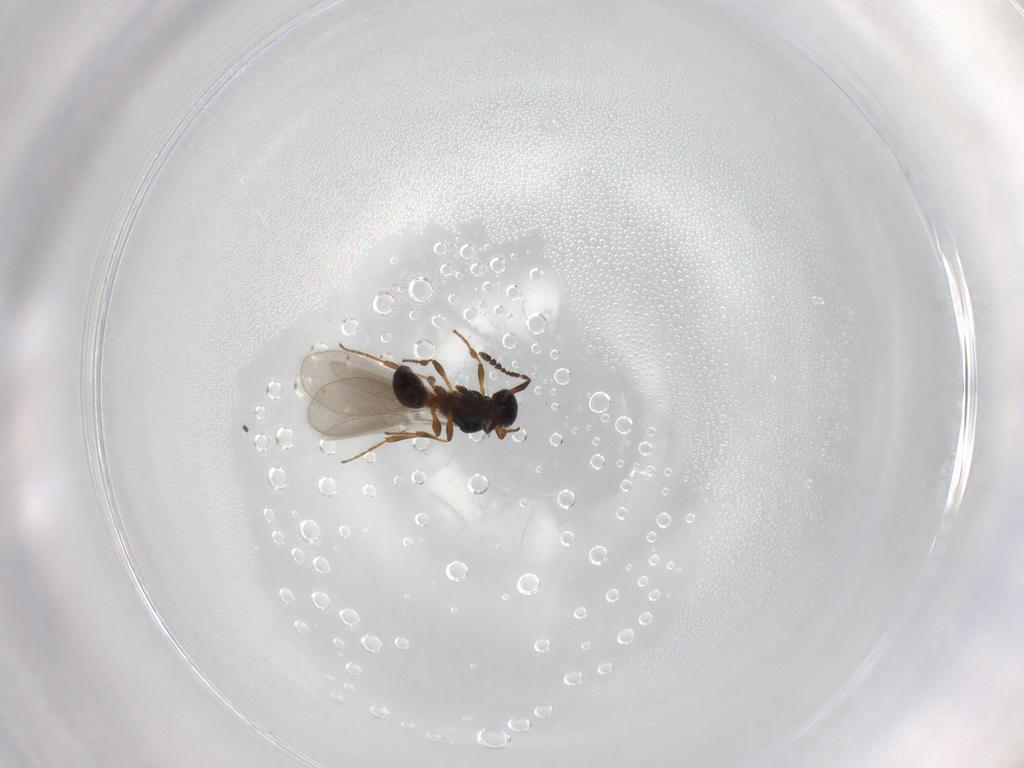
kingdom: Animalia
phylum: Arthropoda
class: Insecta
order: Hymenoptera
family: Platygastridae
